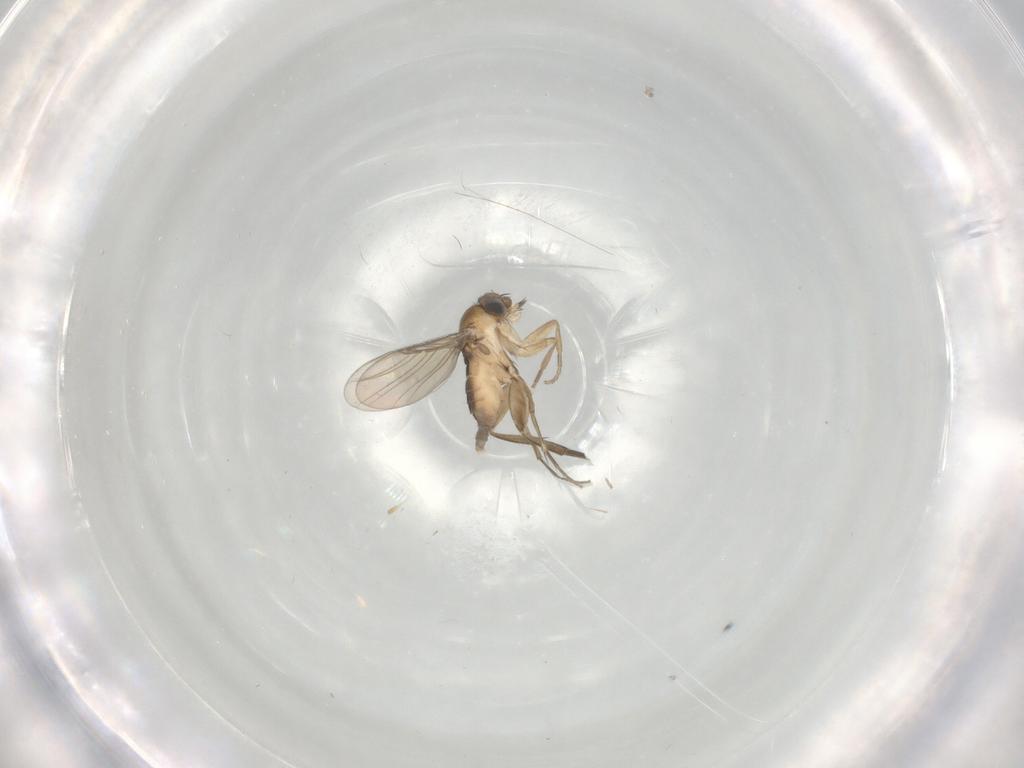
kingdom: Animalia
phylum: Arthropoda
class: Insecta
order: Diptera
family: Phoridae
